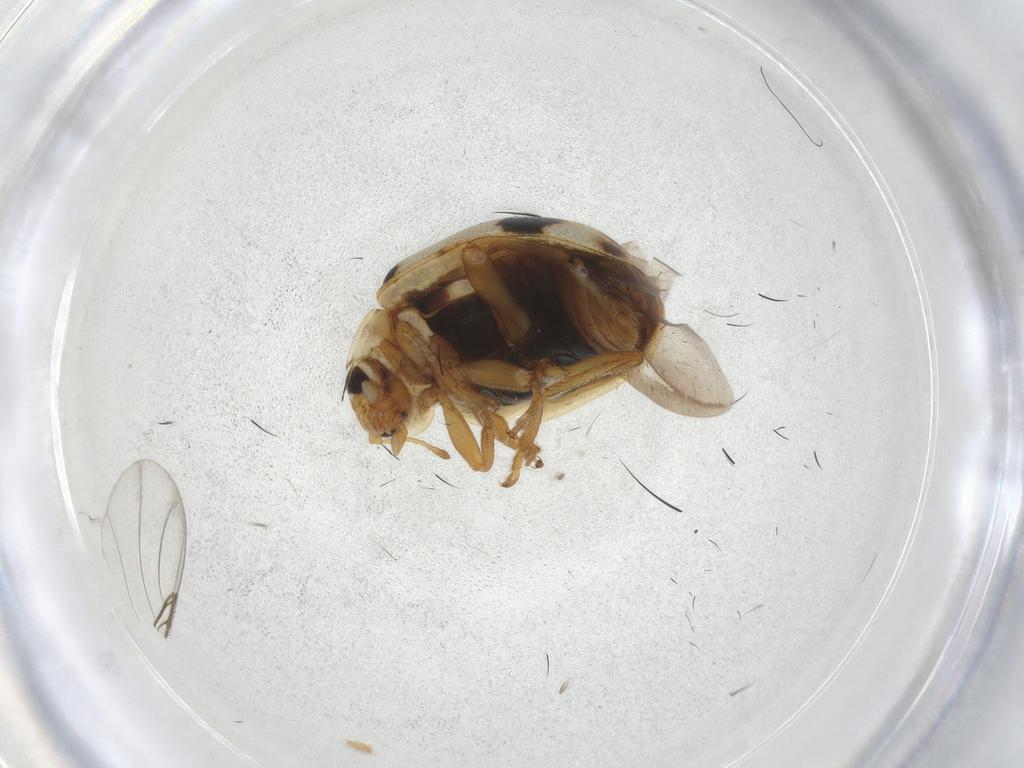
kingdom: Animalia
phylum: Arthropoda
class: Insecta
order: Coleoptera
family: Coccinellidae
